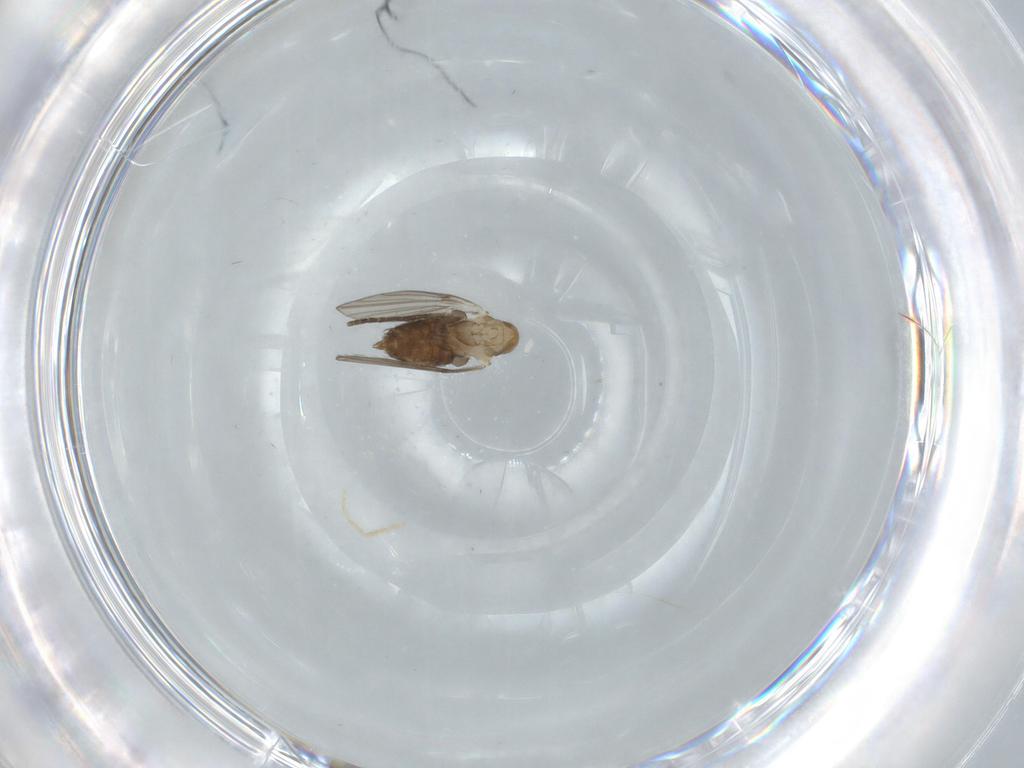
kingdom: Animalia
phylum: Arthropoda
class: Insecta
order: Diptera
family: Psychodidae
